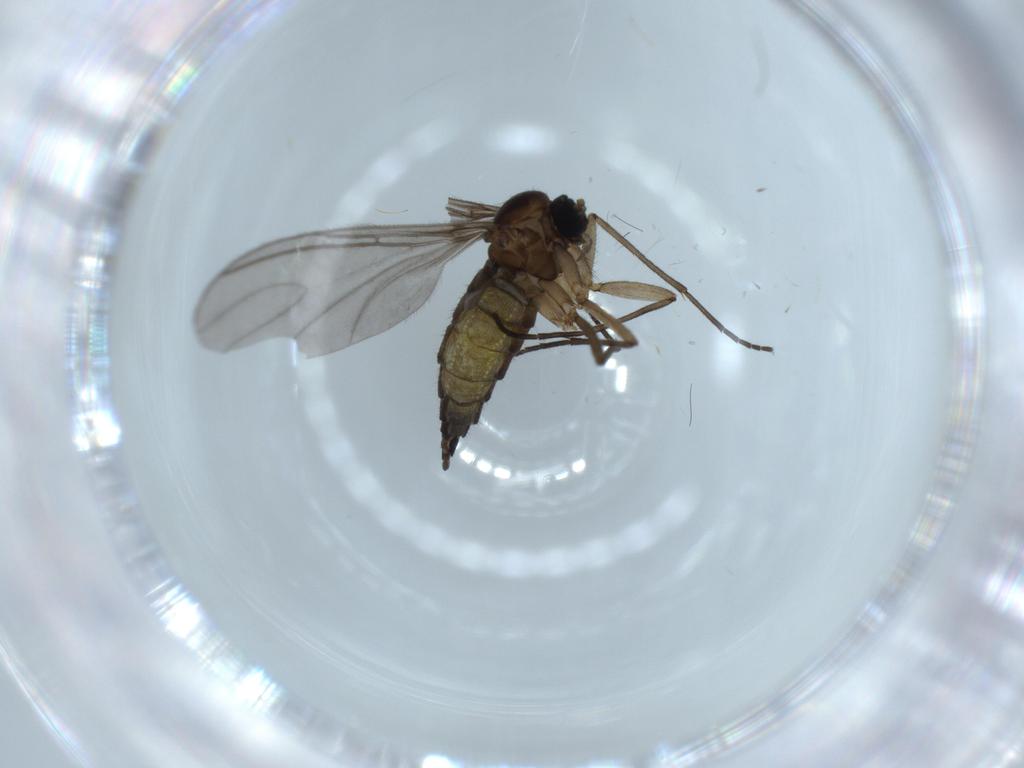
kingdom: Animalia
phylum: Arthropoda
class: Insecta
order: Diptera
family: Sciaridae
